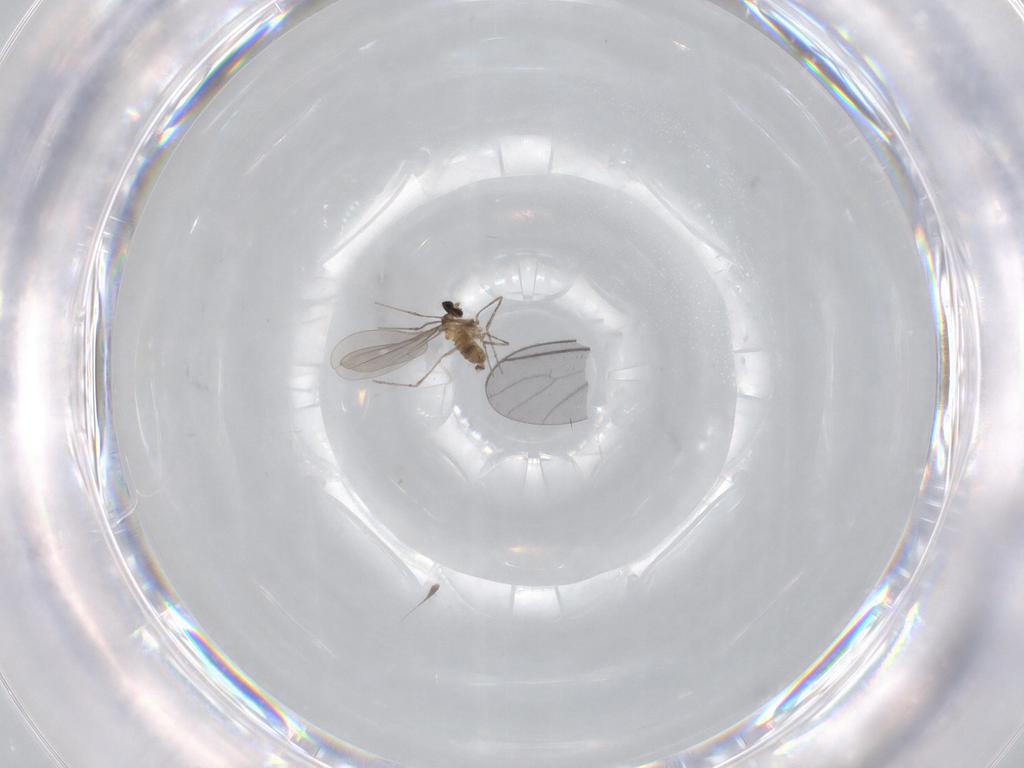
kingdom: Animalia
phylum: Arthropoda
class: Insecta
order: Diptera
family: Cecidomyiidae
